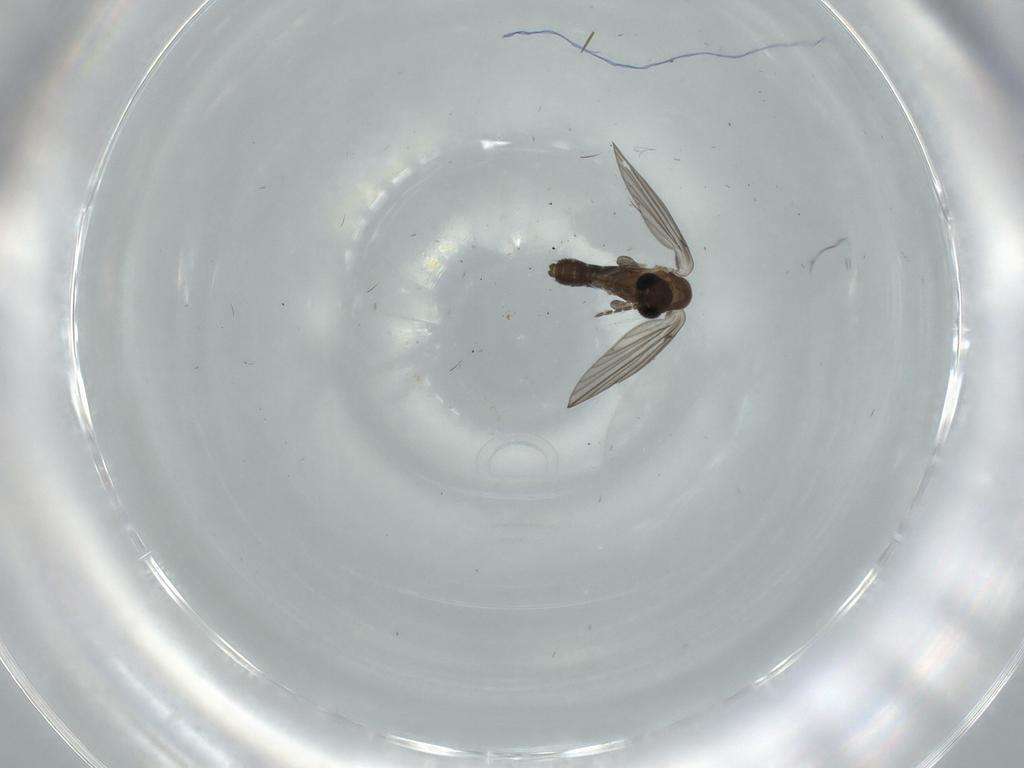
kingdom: Animalia
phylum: Arthropoda
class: Insecta
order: Diptera
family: Psychodidae
